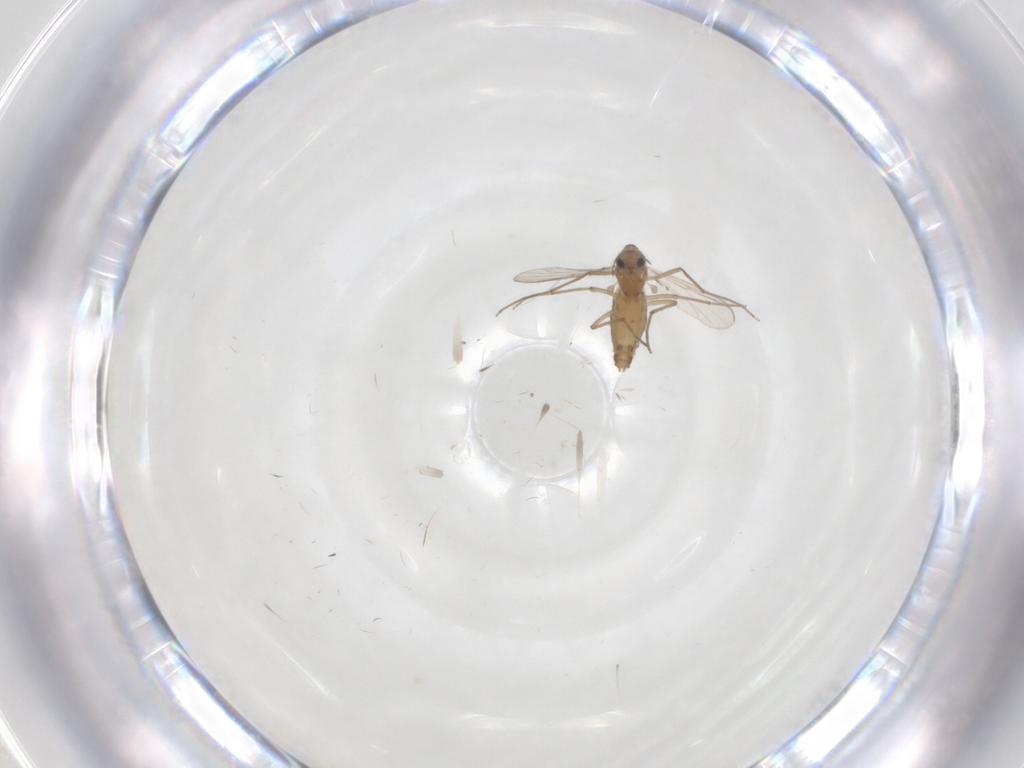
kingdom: Animalia
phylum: Arthropoda
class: Insecta
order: Diptera
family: Chironomidae
